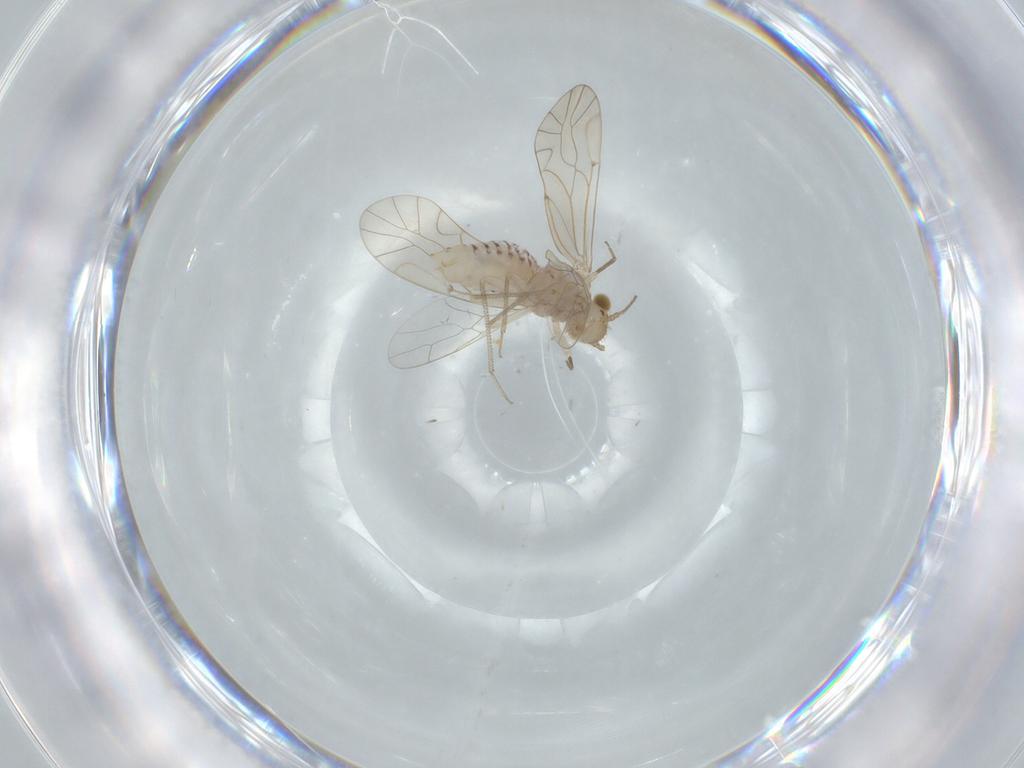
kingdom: Animalia
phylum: Arthropoda
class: Insecta
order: Psocodea
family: Lachesillidae
